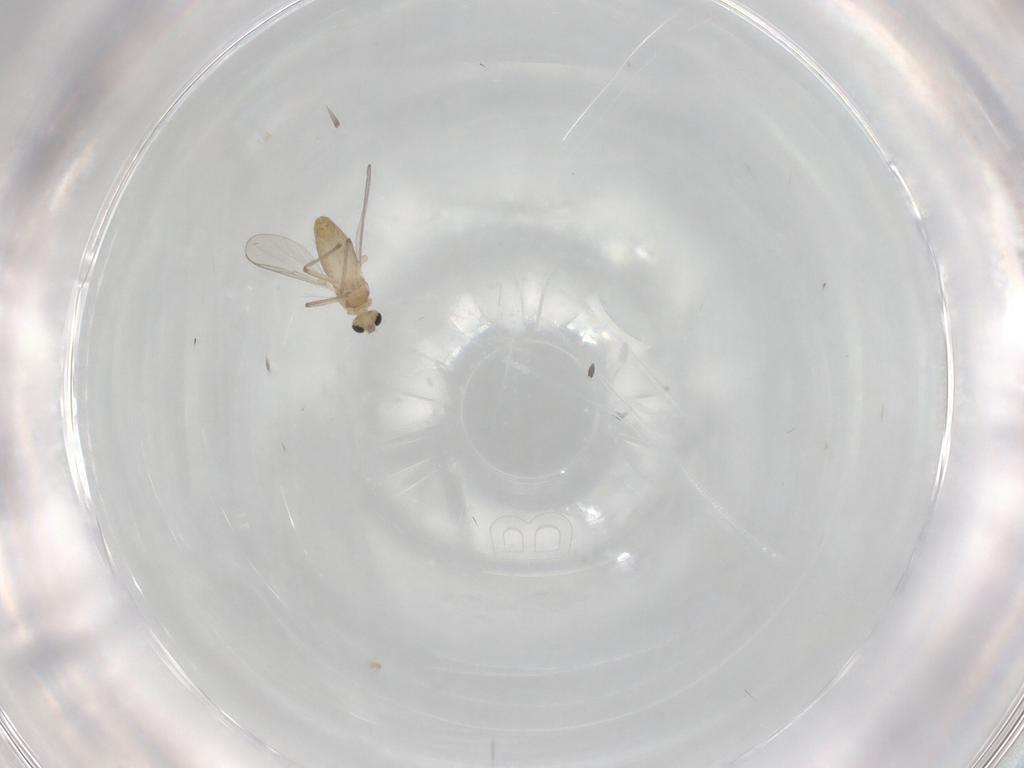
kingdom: Animalia
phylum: Arthropoda
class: Insecta
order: Diptera
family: Chironomidae
